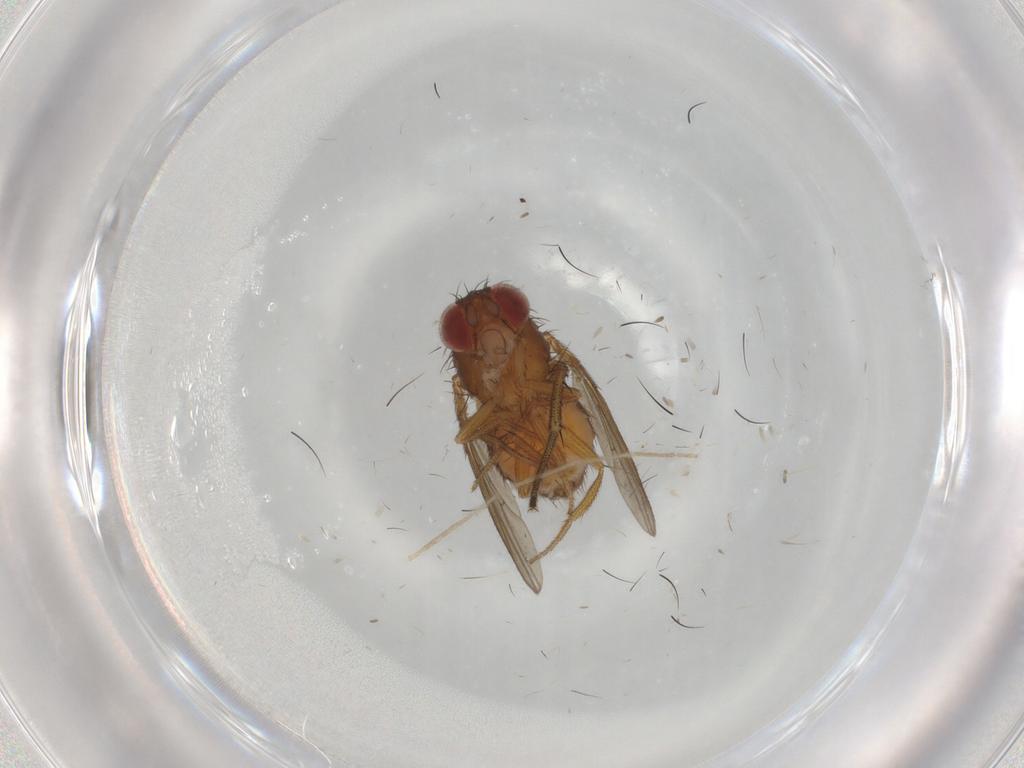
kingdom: Animalia
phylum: Arthropoda
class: Insecta
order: Diptera
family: Drosophilidae
